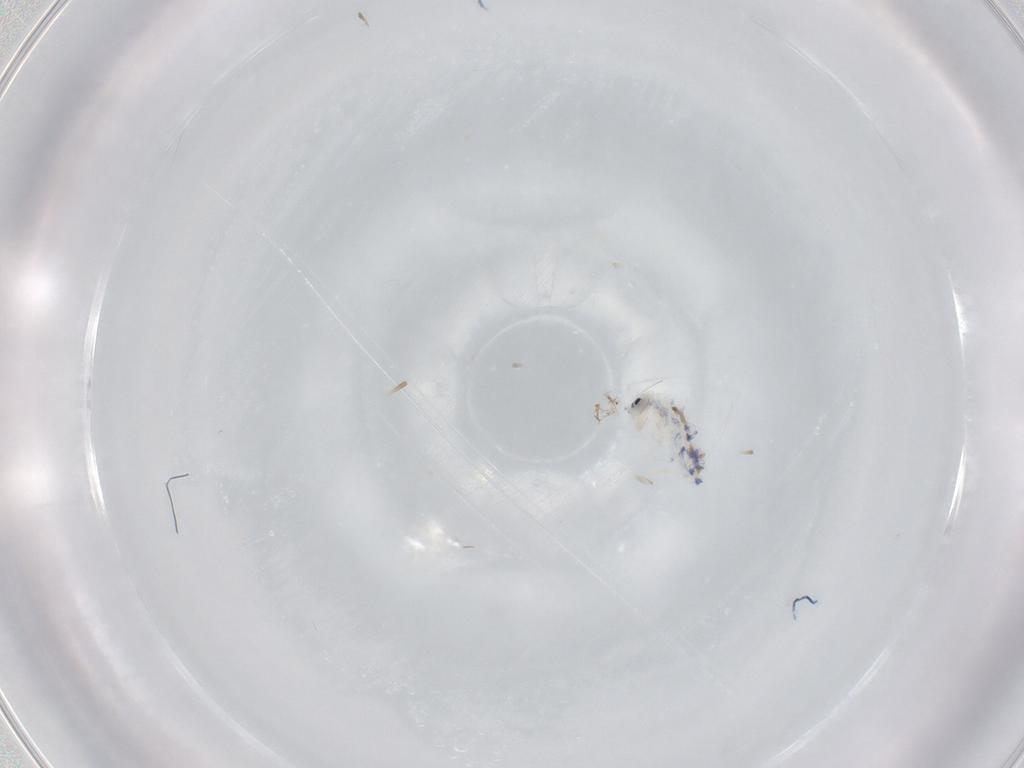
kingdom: Animalia
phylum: Arthropoda
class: Collembola
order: Entomobryomorpha
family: Entomobryidae
